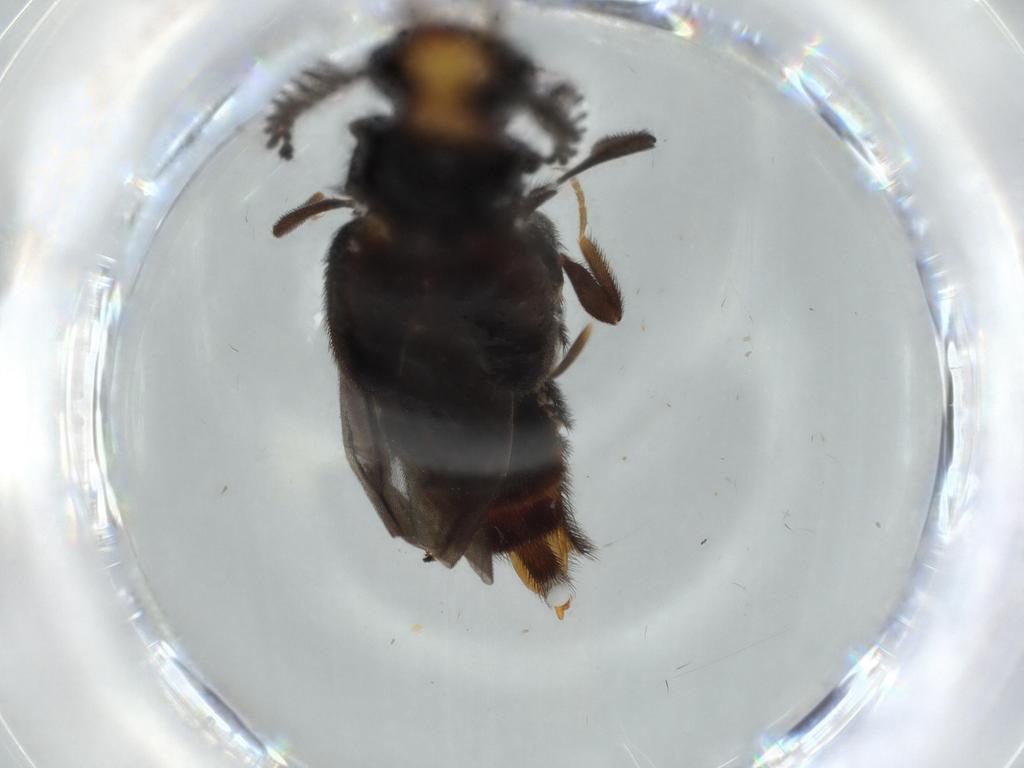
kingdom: Animalia
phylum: Arthropoda
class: Insecta
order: Coleoptera
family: Phengodidae
